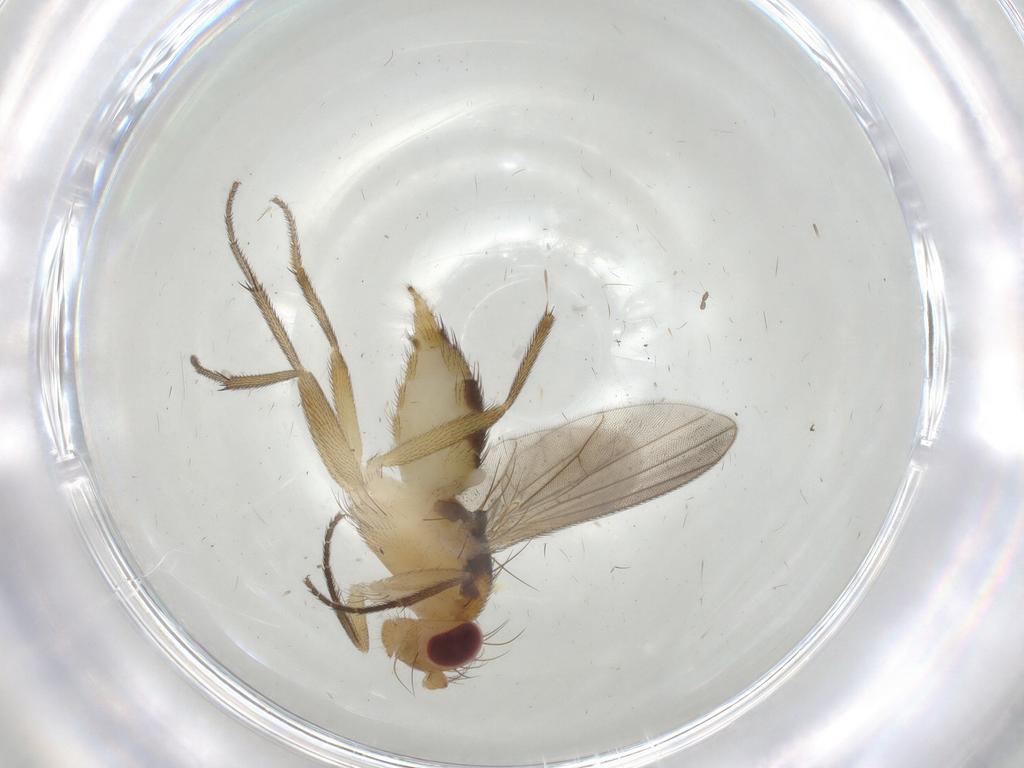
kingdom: Animalia
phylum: Arthropoda
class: Insecta
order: Diptera
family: Clusiidae
